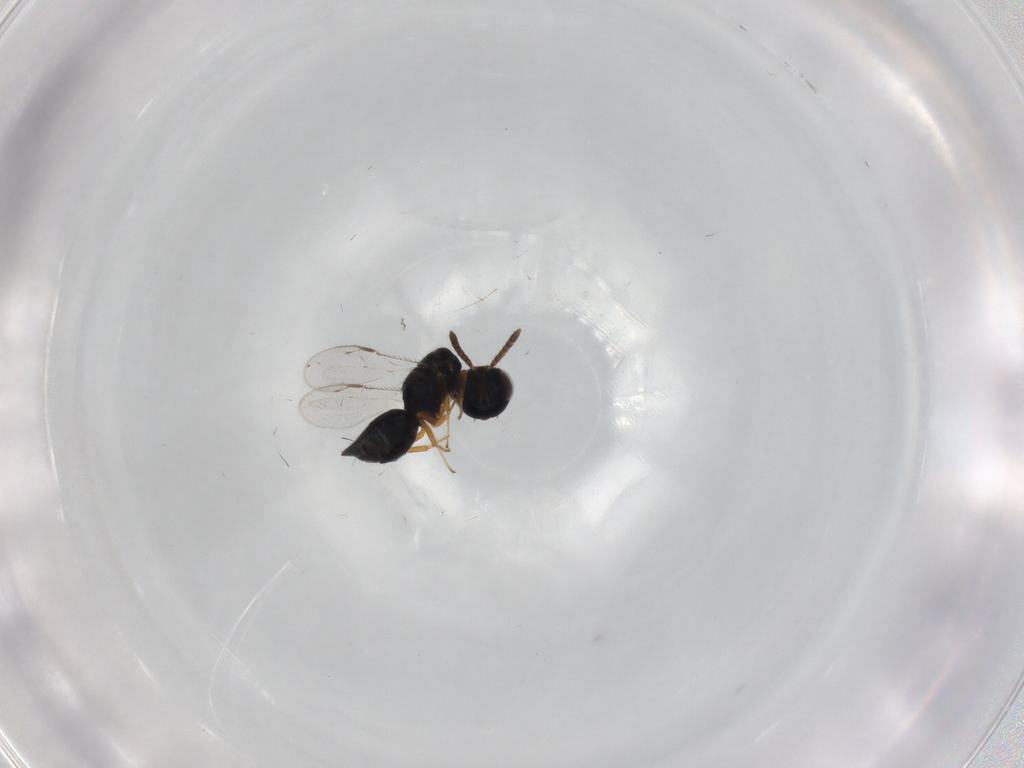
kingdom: Animalia
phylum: Arthropoda
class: Insecta
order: Hymenoptera
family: Pteromalidae
